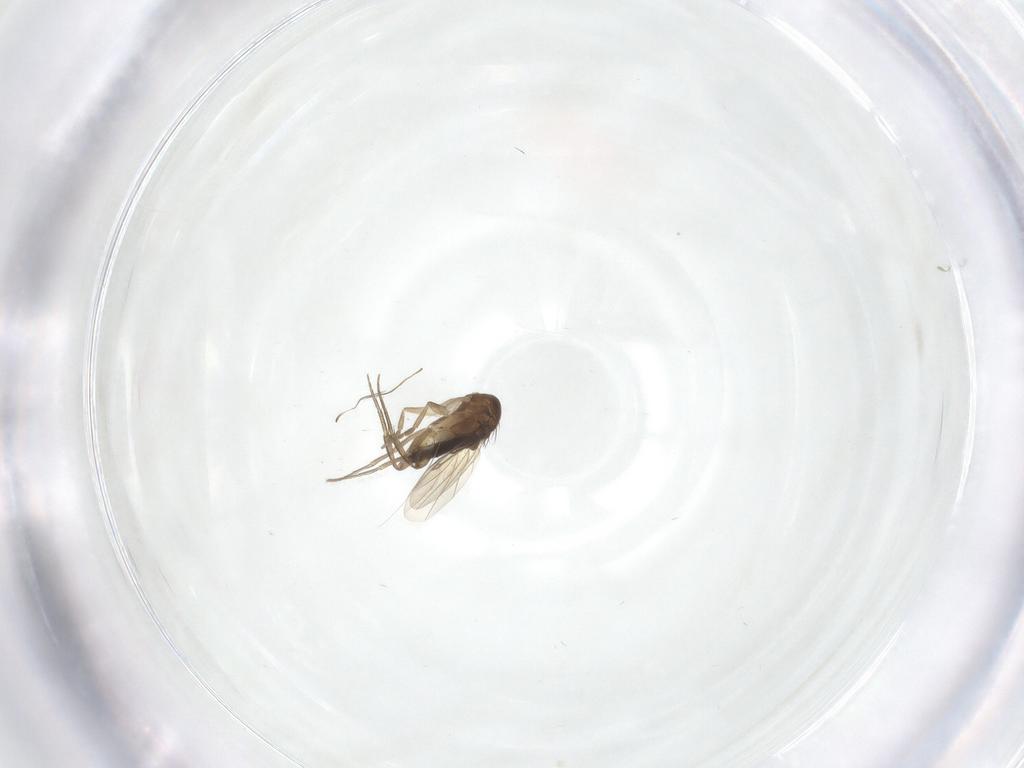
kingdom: Animalia
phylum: Arthropoda
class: Insecta
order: Diptera
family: Phoridae
